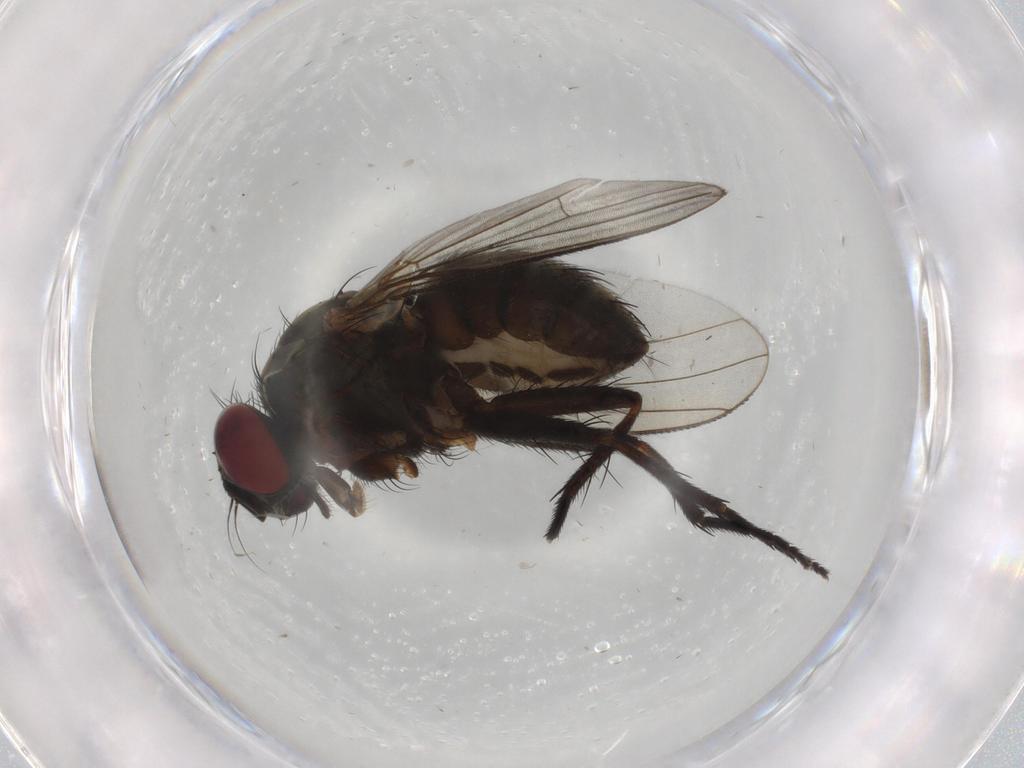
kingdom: Animalia
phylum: Arthropoda
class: Insecta
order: Diptera
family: Muscidae
